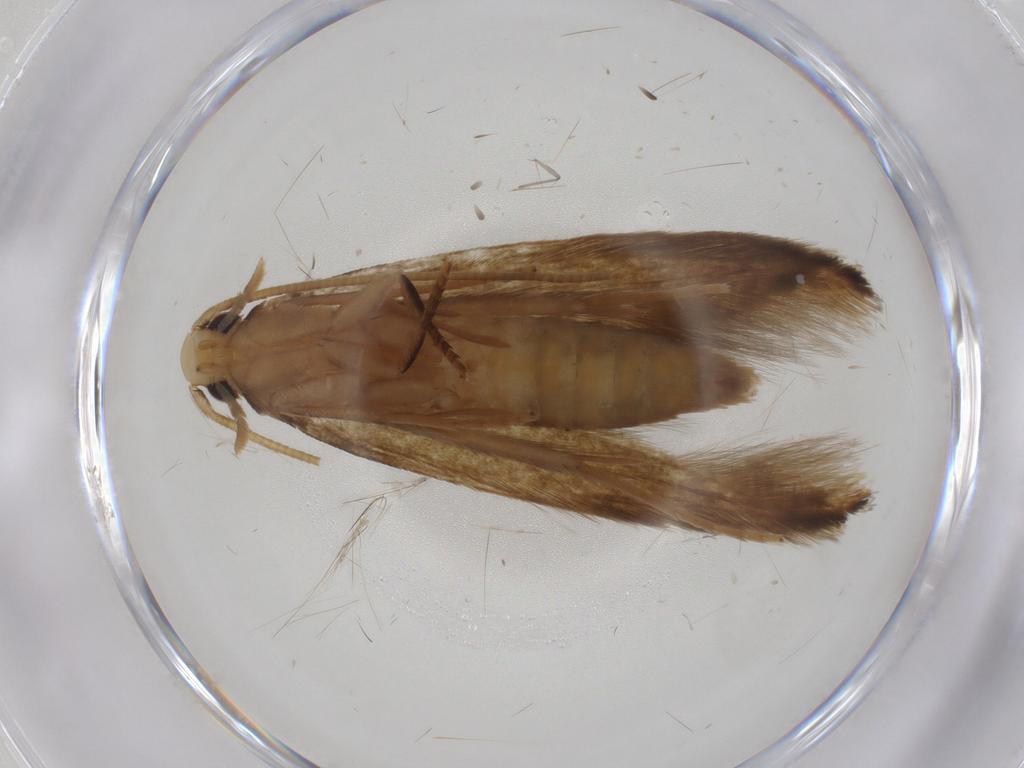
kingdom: Animalia
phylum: Arthropoda
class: Insecta
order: Lepidoptera
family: Tineidae
